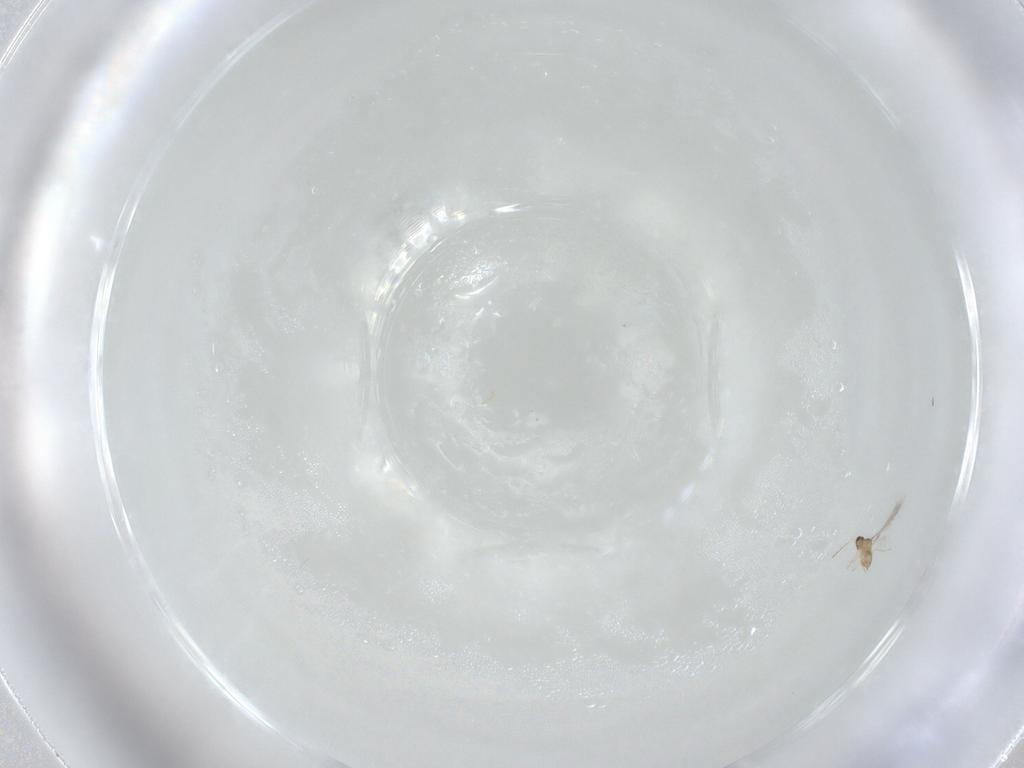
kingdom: Animalia
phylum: Arthropoda
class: Insecta
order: Hymenoptera
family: Mymaridae
